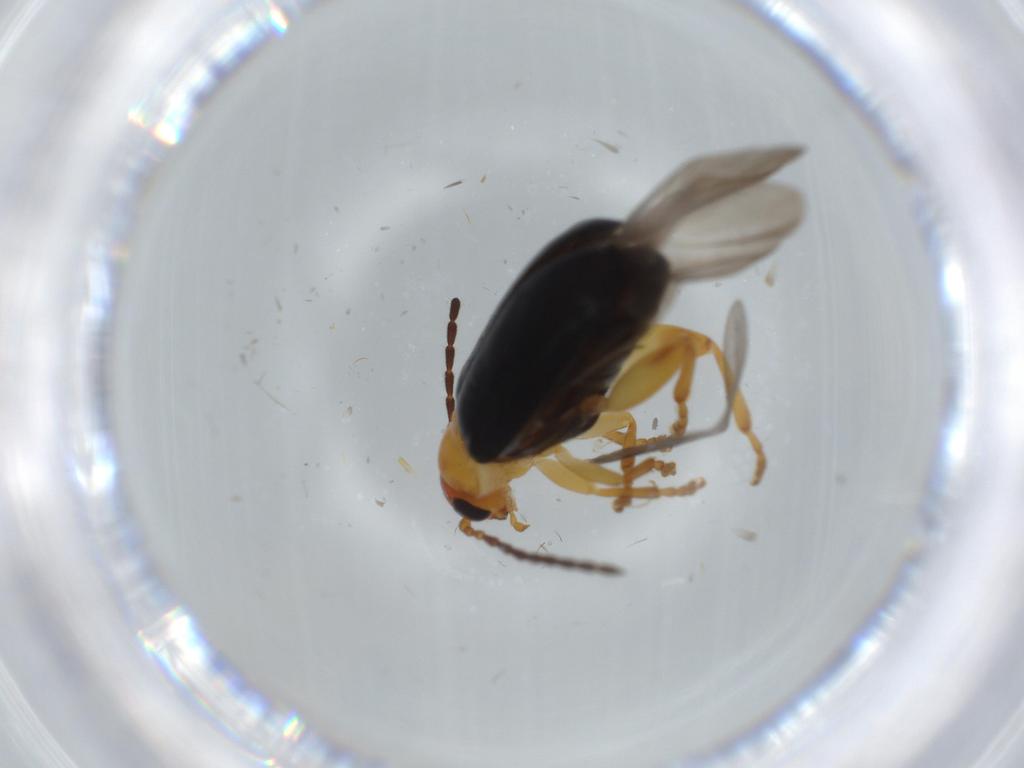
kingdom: Animalia
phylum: Arthropoda
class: Insecta
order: Coleoptera
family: Chrysomelidae
